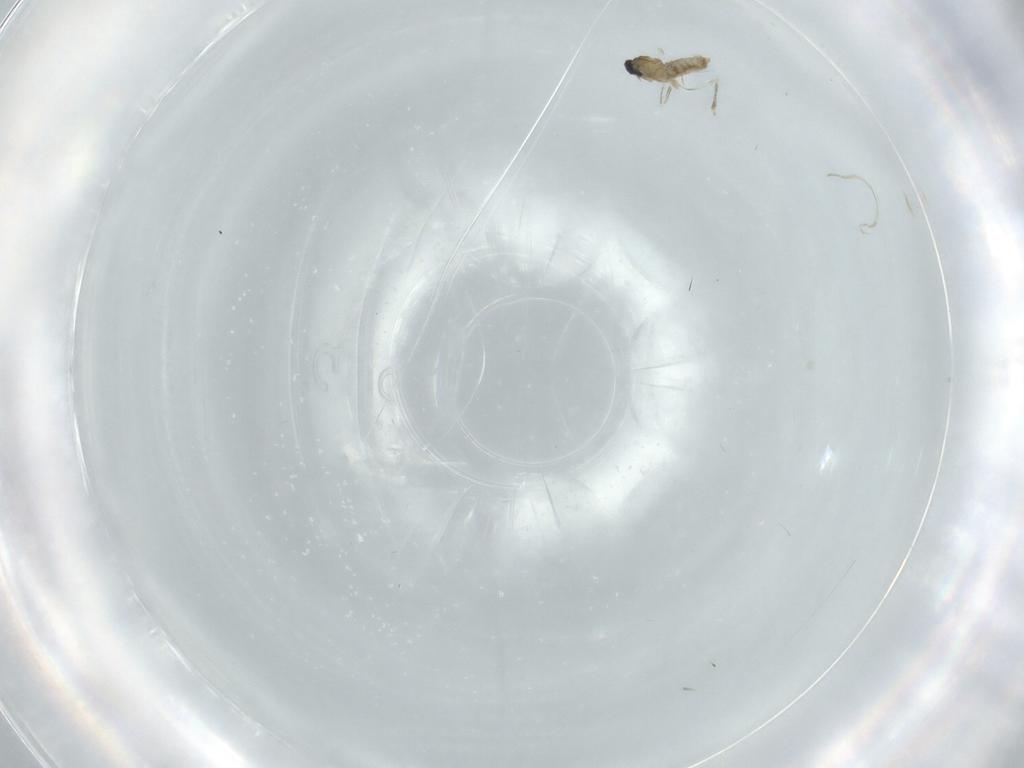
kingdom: Animalia
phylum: Arthropoda
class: Insecta
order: Diptera
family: Cecidomyiidae
